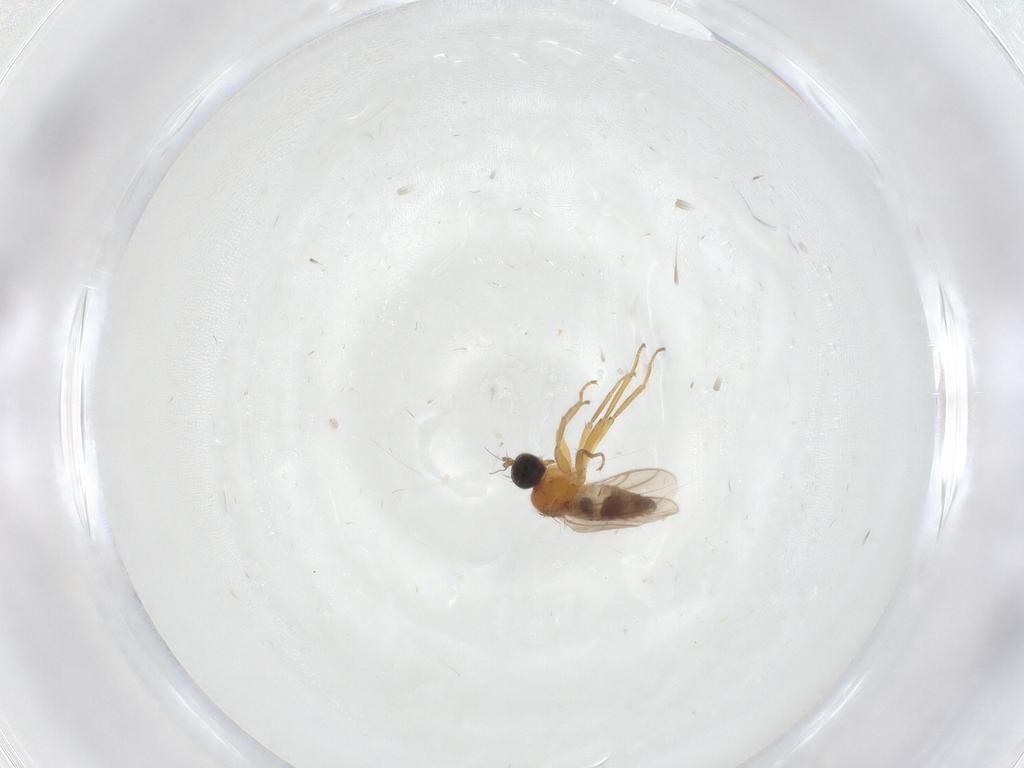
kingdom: Animalia
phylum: Arthropoda
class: Insecta
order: Diptera
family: Hybotidae
